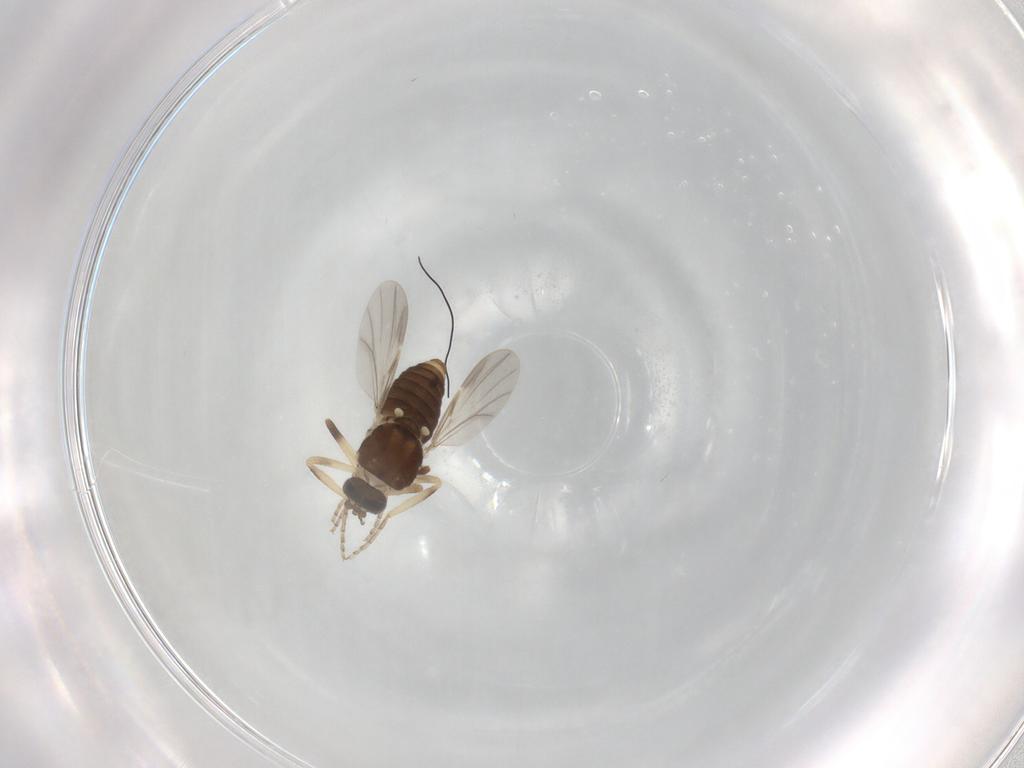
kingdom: Animalia
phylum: Arthropoda
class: Insecta
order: Diptera
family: Ceratopogonidae
